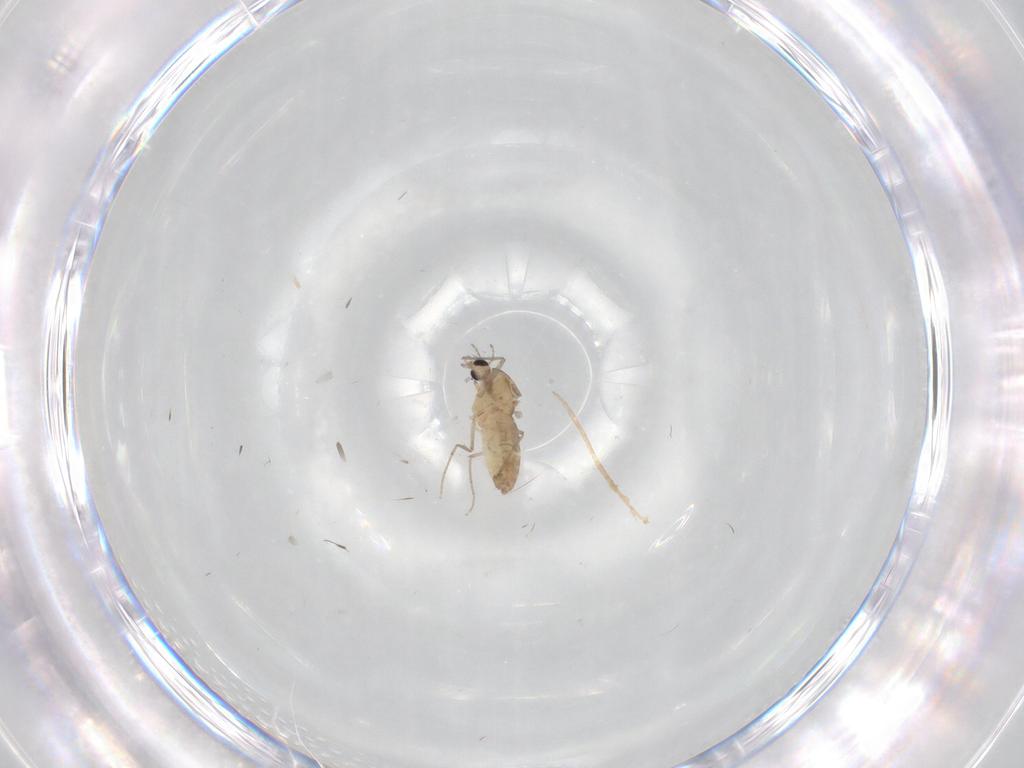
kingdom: Animalia
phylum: Arthropoda
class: Insecta
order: Diptera
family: Chironomidae
